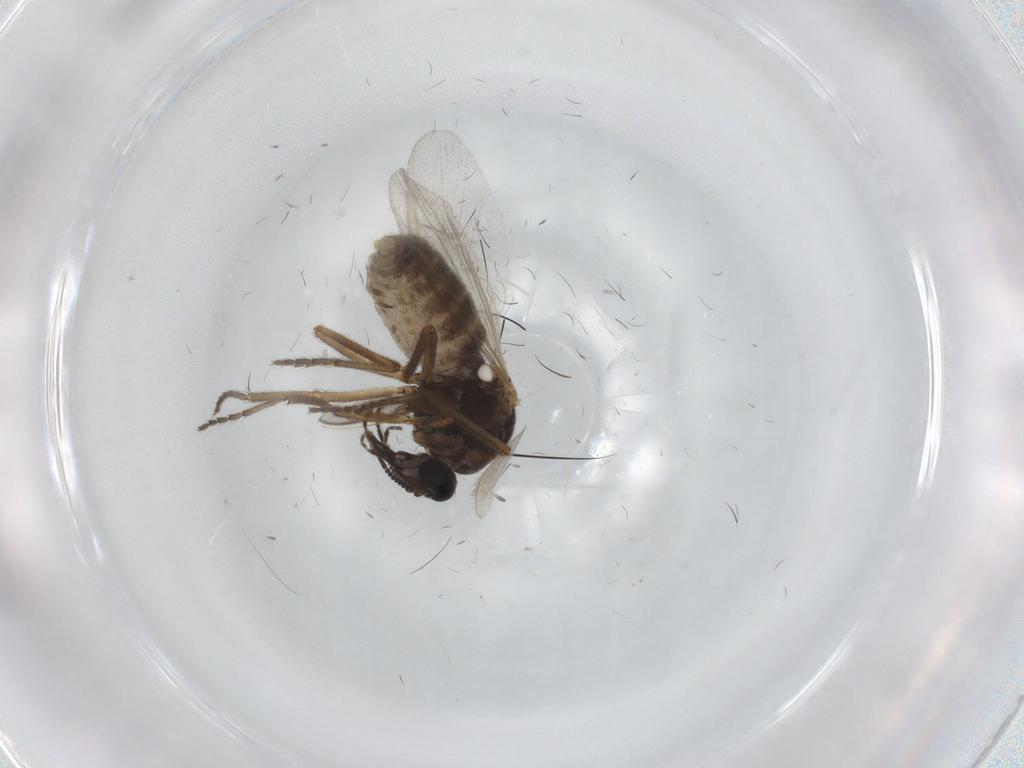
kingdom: Animalia
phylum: Arthropoda
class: Insecta
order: Diptera
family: Ceratopogonidae
